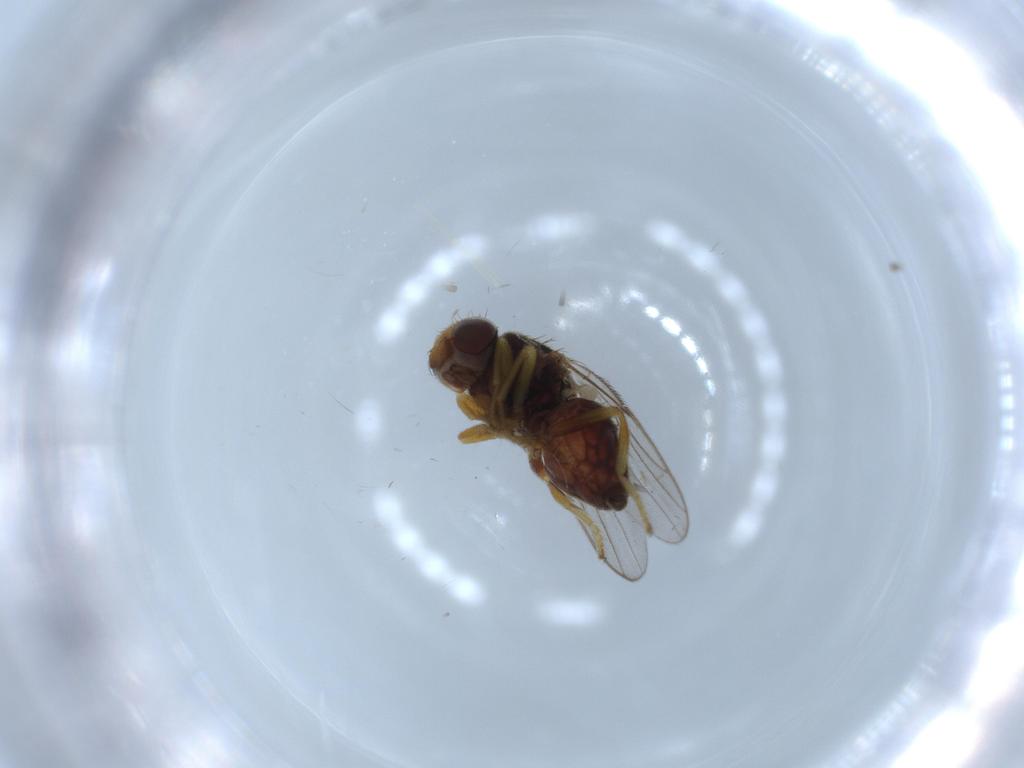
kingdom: Animalia
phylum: Arthropoda
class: Insecta
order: Diptera
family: Chloropidae
